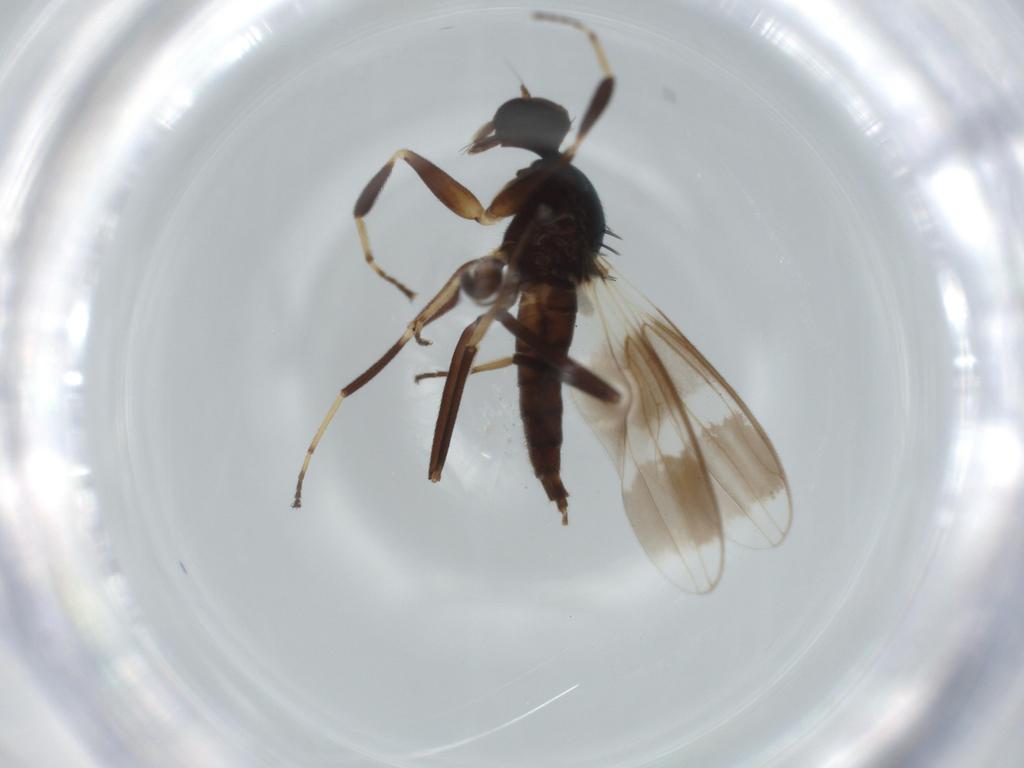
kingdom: Animalia
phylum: Arthropoda
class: Insecta
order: Diptera
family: Hybotidae
